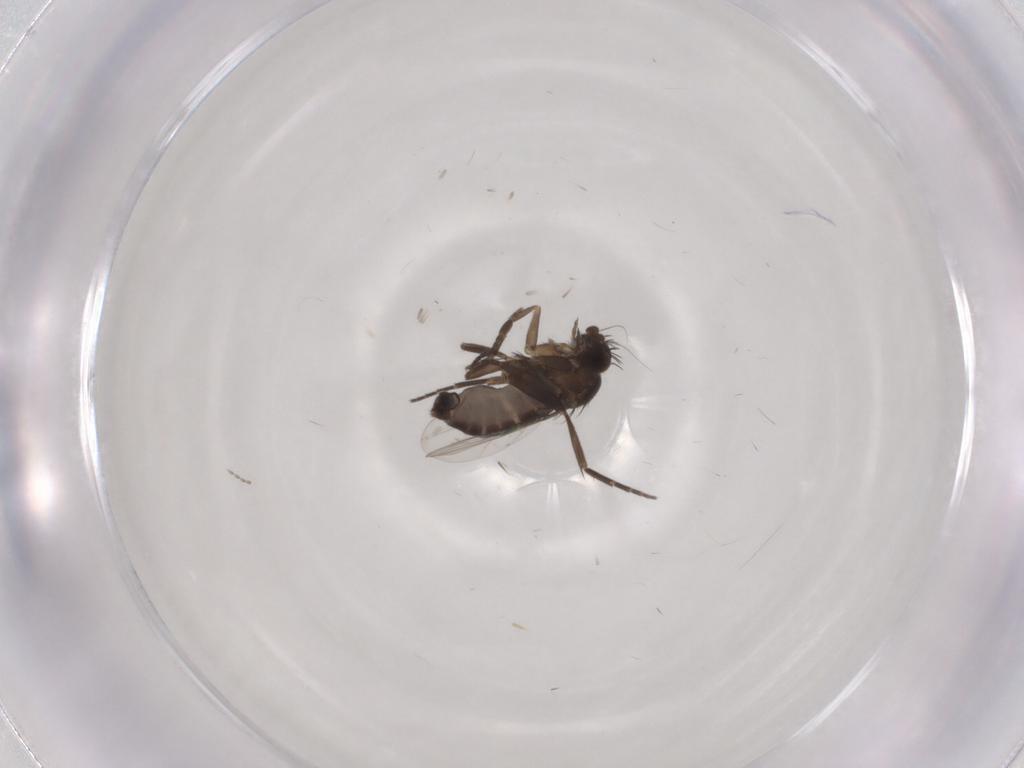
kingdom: Animalia
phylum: Arthropoda
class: Insecta
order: Diptera
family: Phoridae
